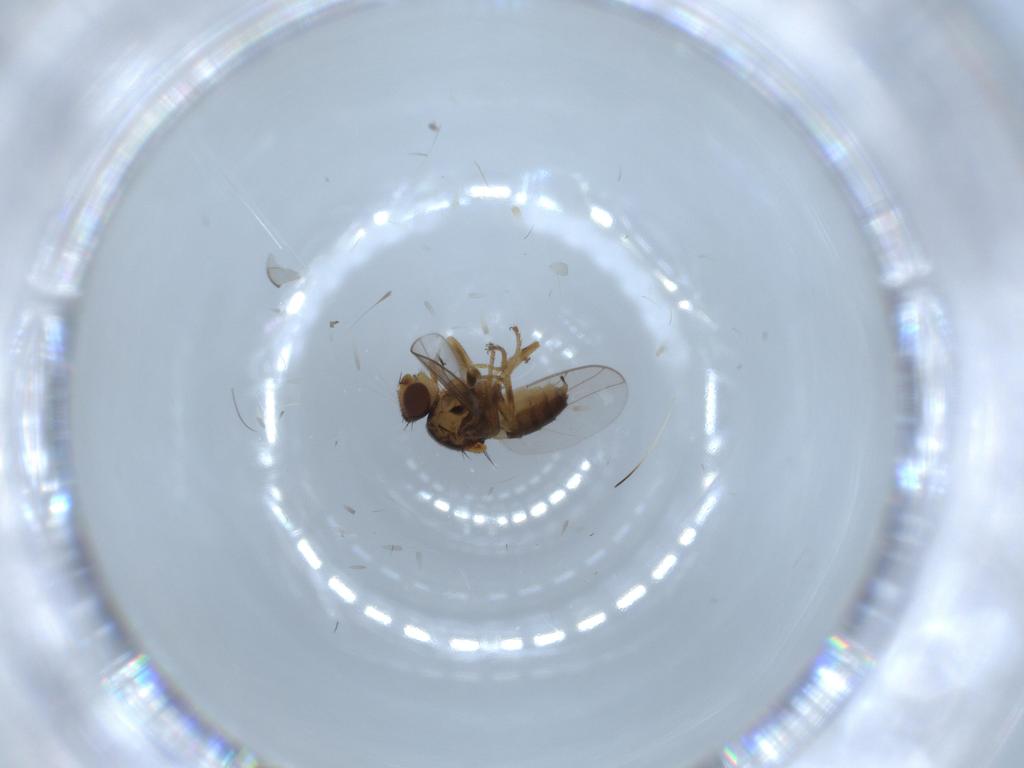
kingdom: Animalia
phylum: Arthropoda
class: Insecta
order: Diptera
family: Chloropidae
